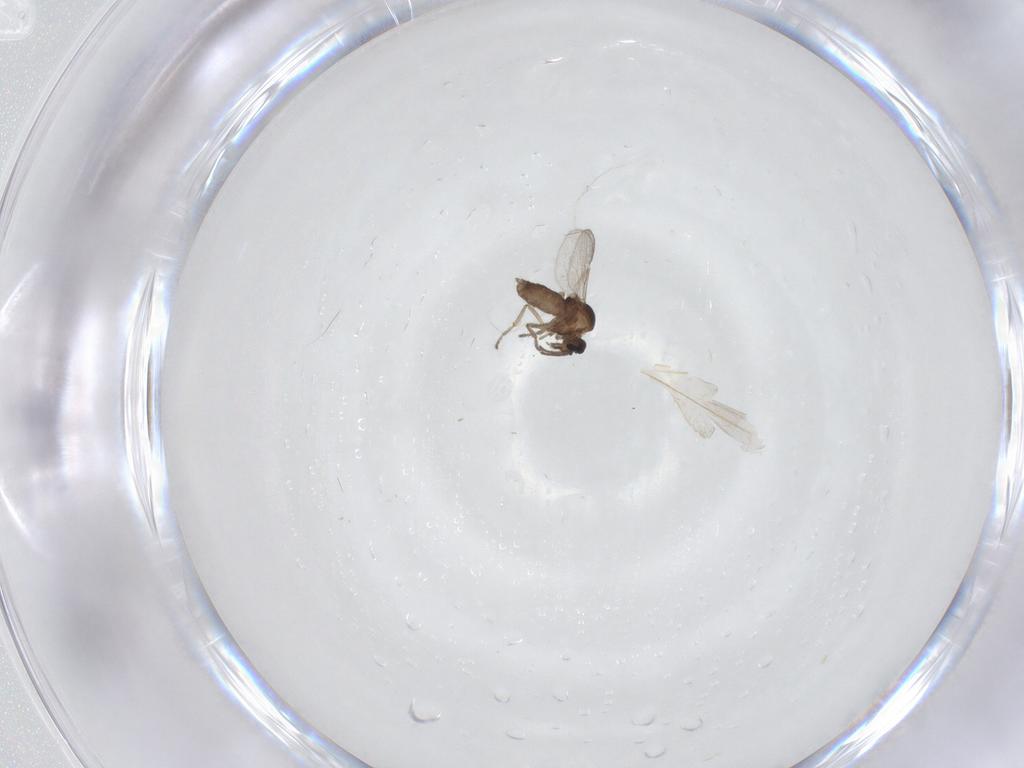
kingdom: Animalia
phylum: Arthropoda
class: Insecta
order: Diptera
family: Ceratopogonidae
